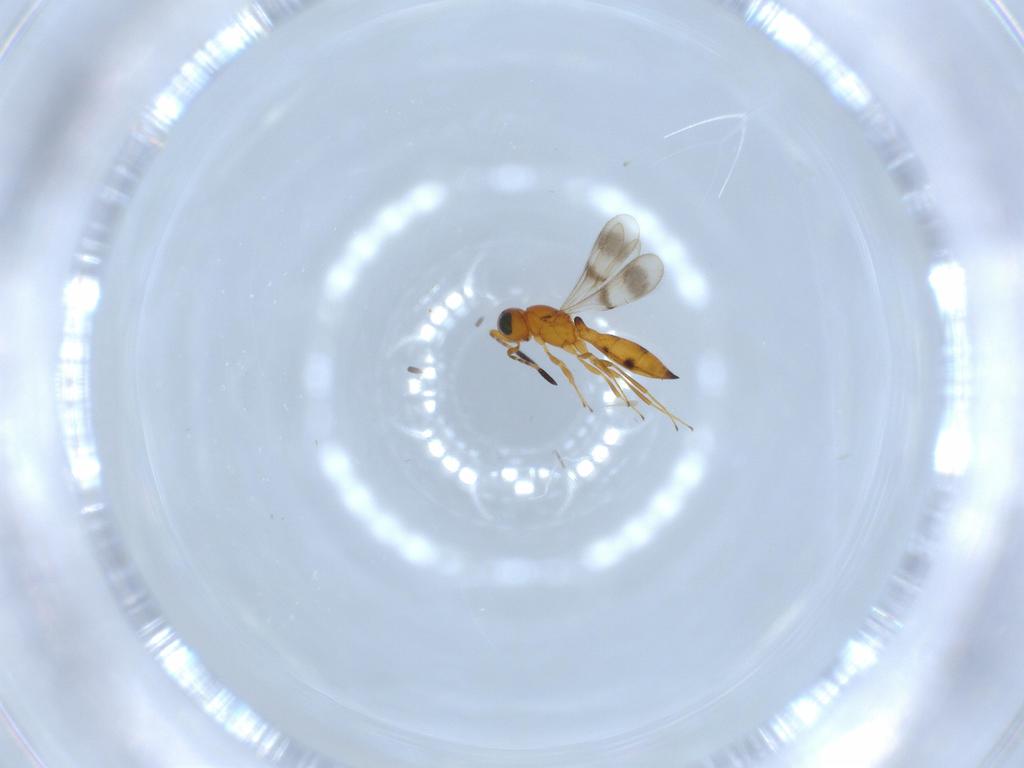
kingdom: Animalia
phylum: Arthropoda
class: Insecta
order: Hymenoptera
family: Scelionidae
